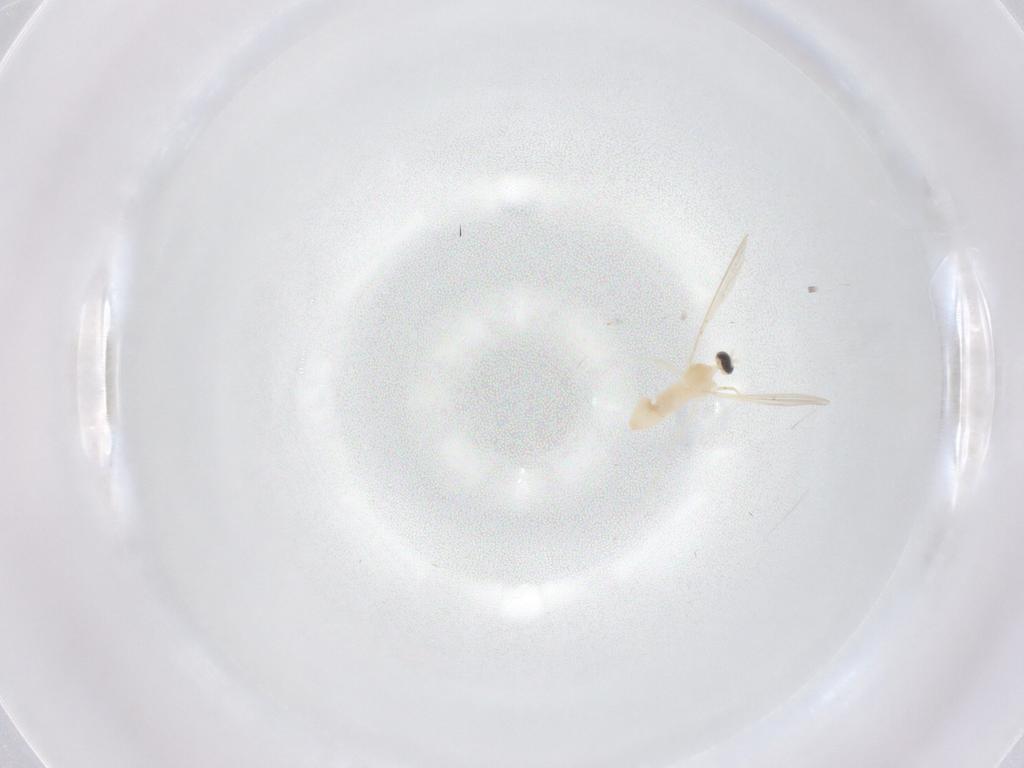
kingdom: Animalia
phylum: Arthropoda
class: Insecta
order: Diptera
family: Cecidomyiidae
